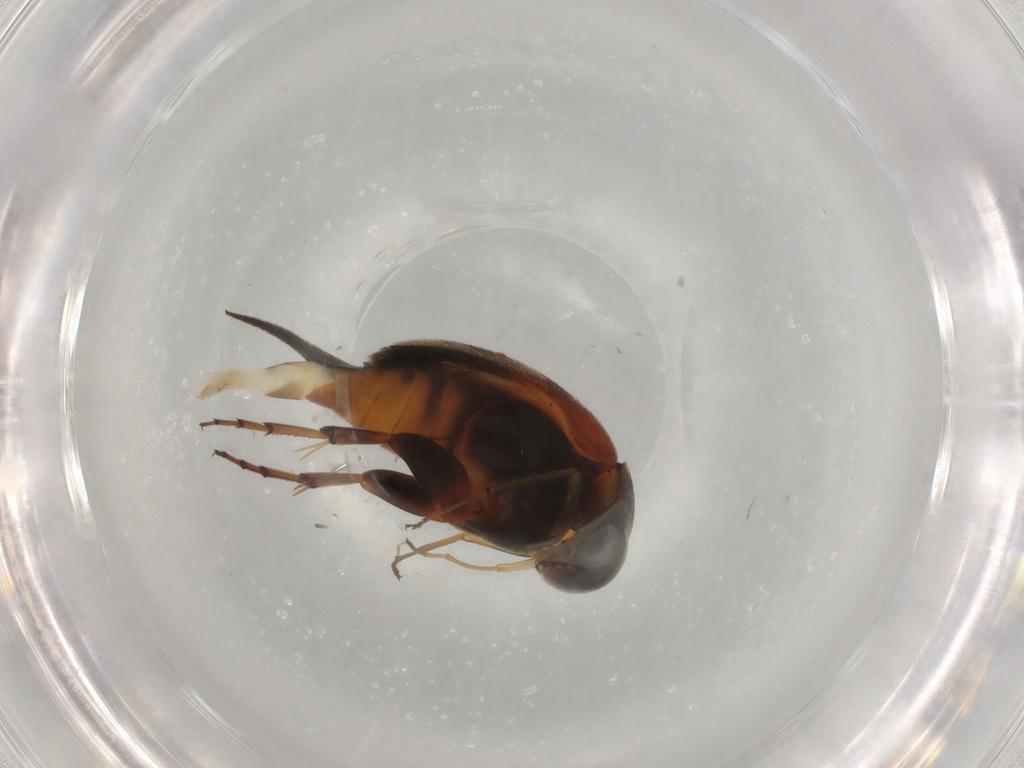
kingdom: Animalia
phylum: Arthropoda
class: Insecta
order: Coleoptera
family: Mordellidae
